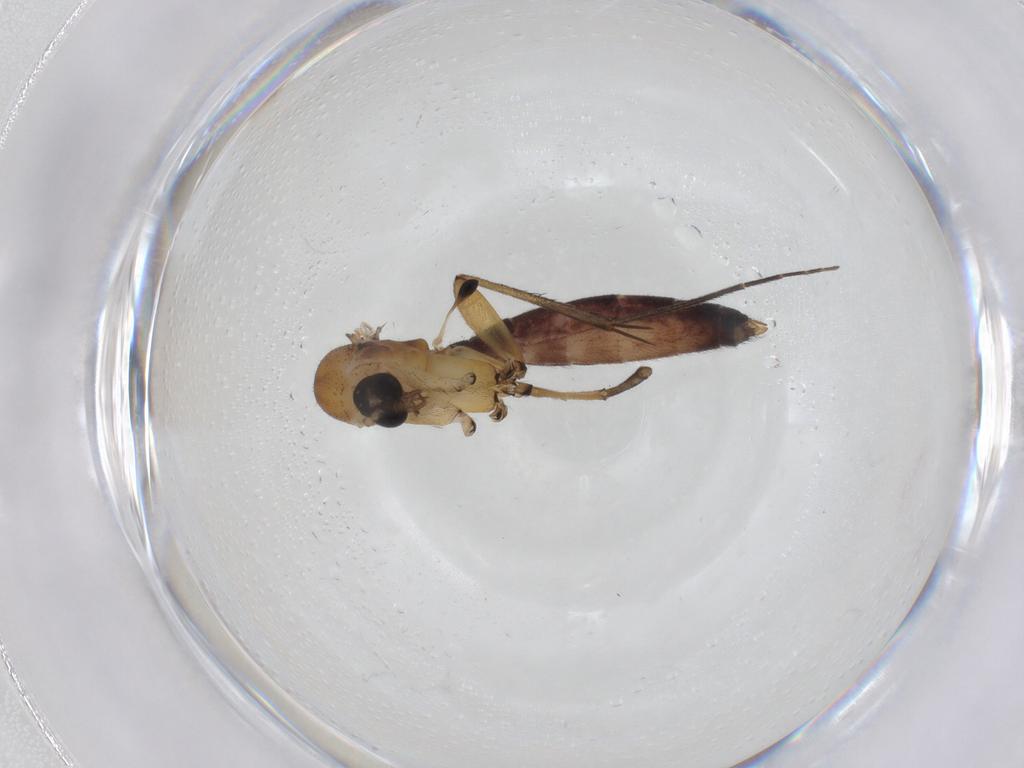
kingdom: Animalia
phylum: Arthropoda
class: Insecta
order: Diptera
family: Mycetophilidae
